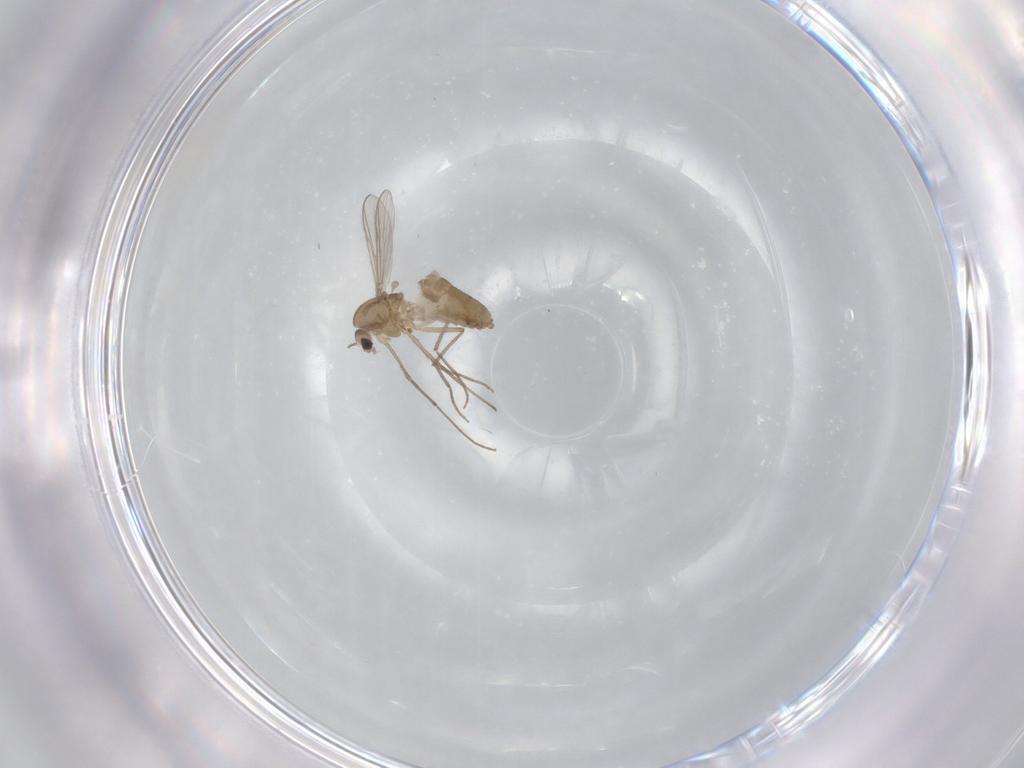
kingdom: Animalia
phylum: Arthropoda
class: Insecta
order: Diptera
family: Chironomidae
